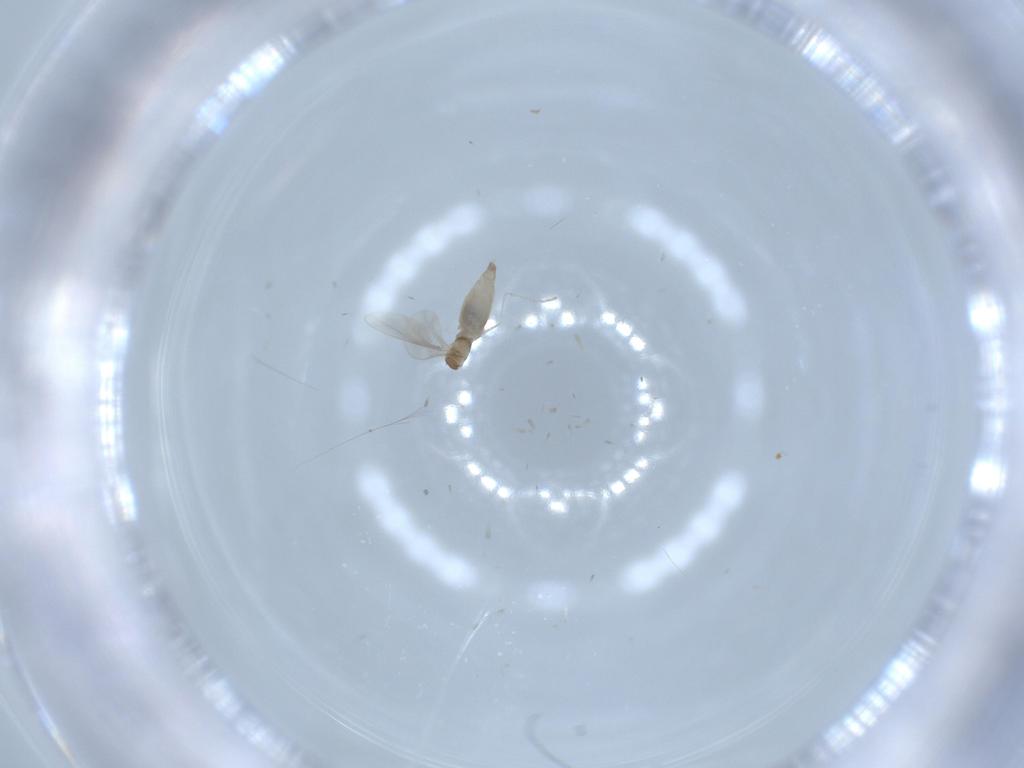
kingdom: Animalia
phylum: Arthropoda
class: Insecta
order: Diptera
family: Cecidomyiidae
